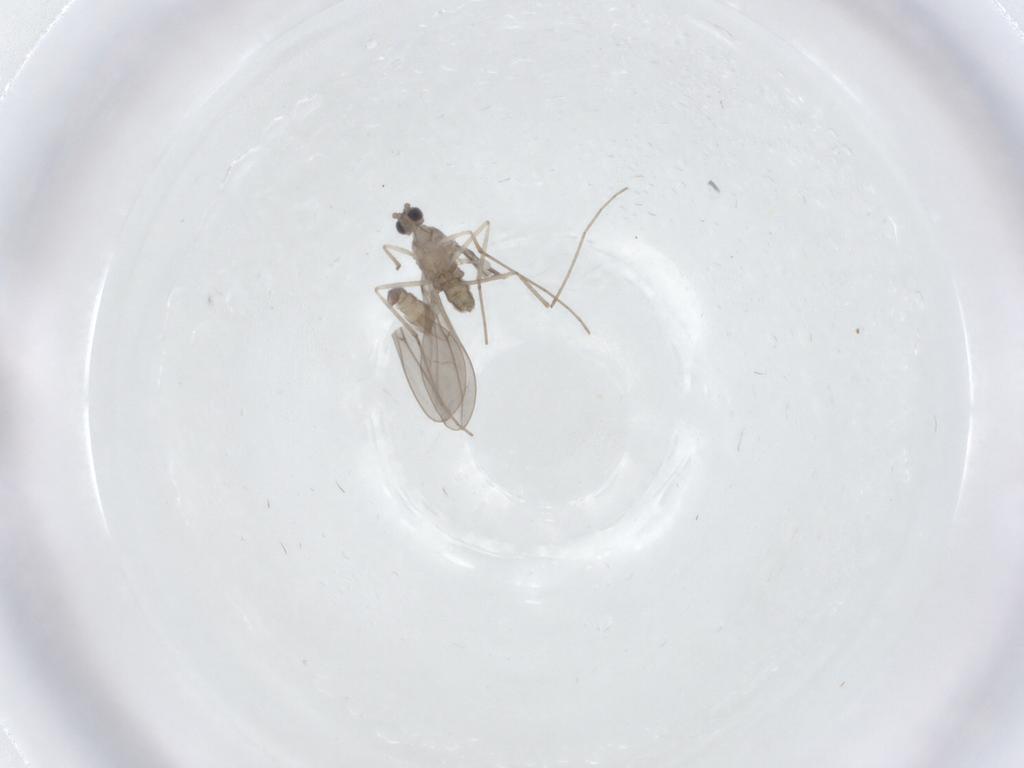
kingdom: Animalia
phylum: Arthropoda
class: Insecta
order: Diptera
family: Cecidomyiidae
